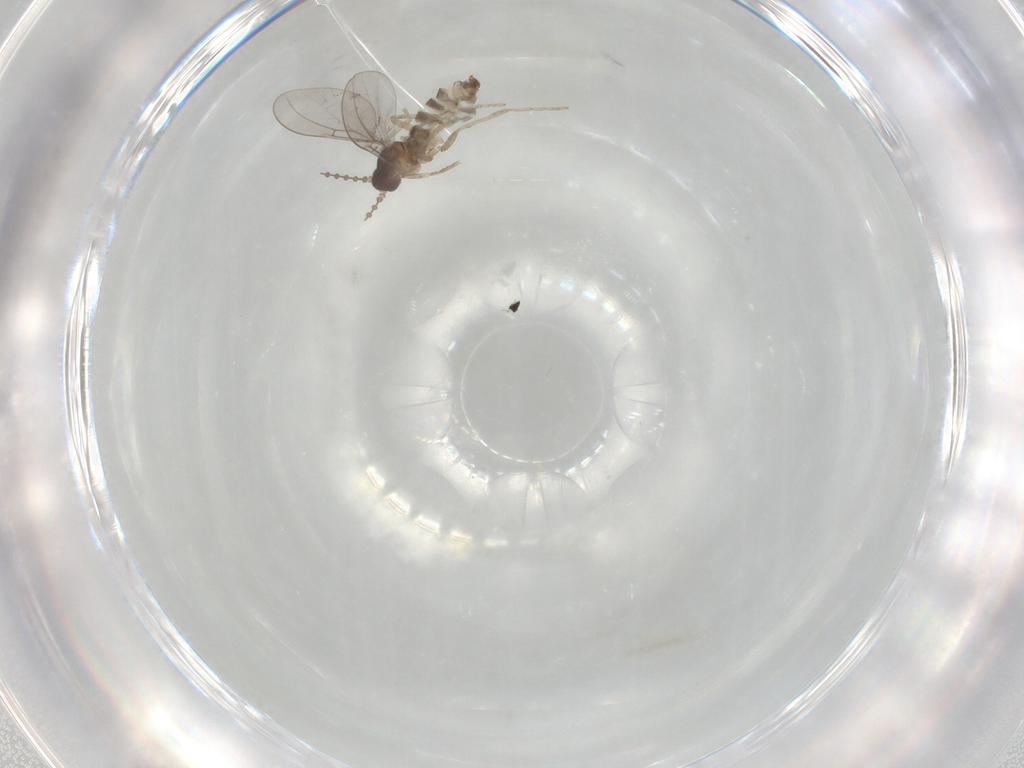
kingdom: Animalia
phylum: Arthropoda
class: Insecta
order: Diptera
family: Cecidomyiidae
